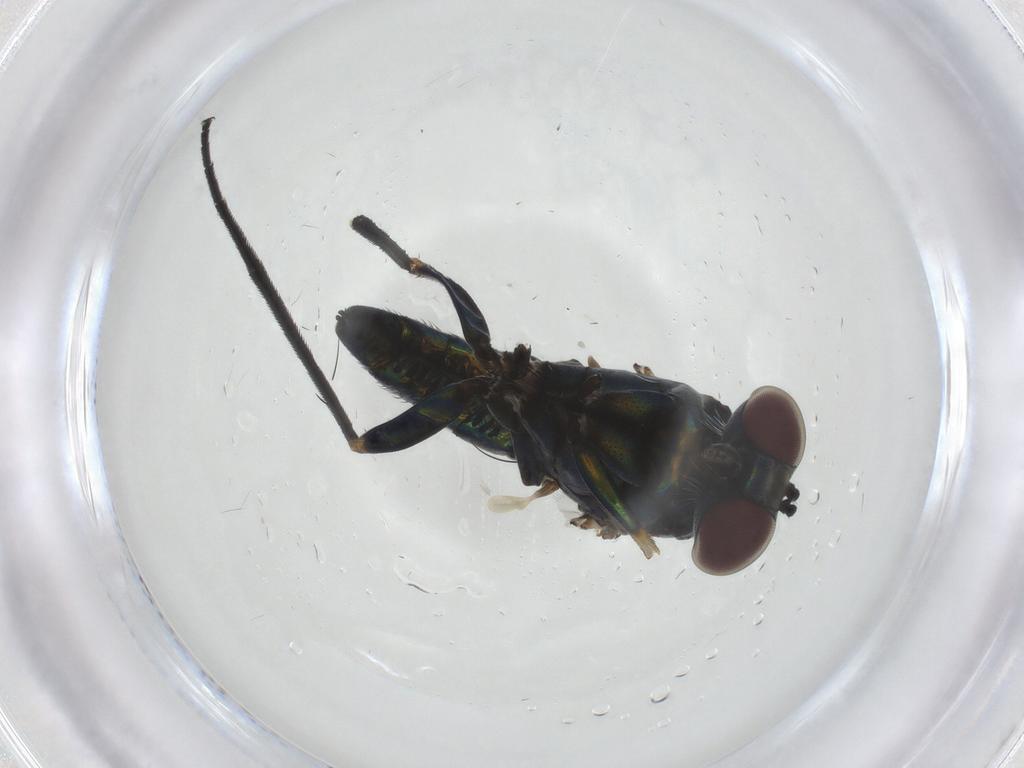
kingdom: Animalia
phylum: Arthropoda
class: Insecta
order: Diptera
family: Dolichopodidae
